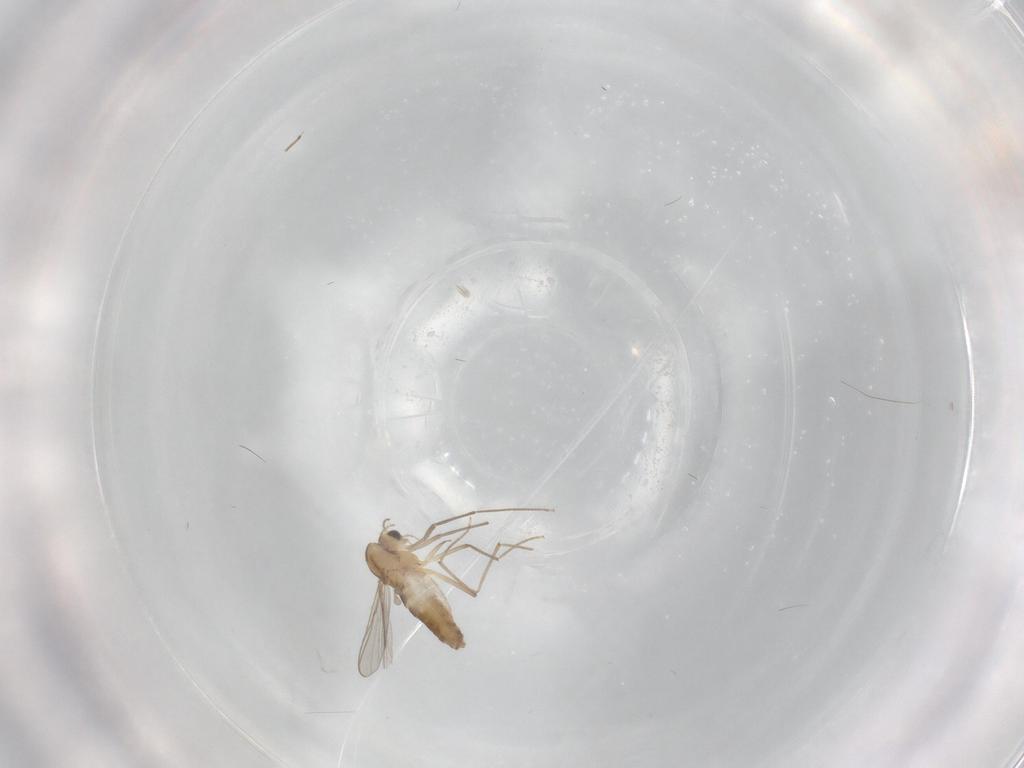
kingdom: Animalia
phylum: Arthropoda
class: Insecta
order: Diptera
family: Chironomidae
